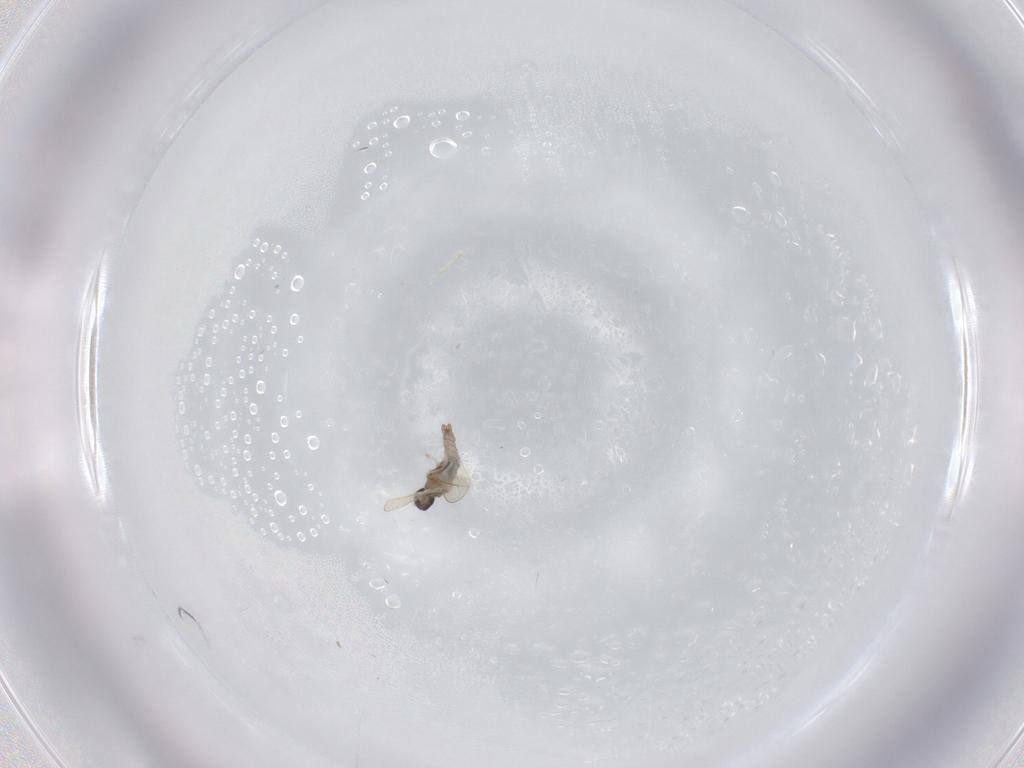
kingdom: Animalia
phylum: Arthropoda
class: Insecta
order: Diptera
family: Cecidomyiidae
